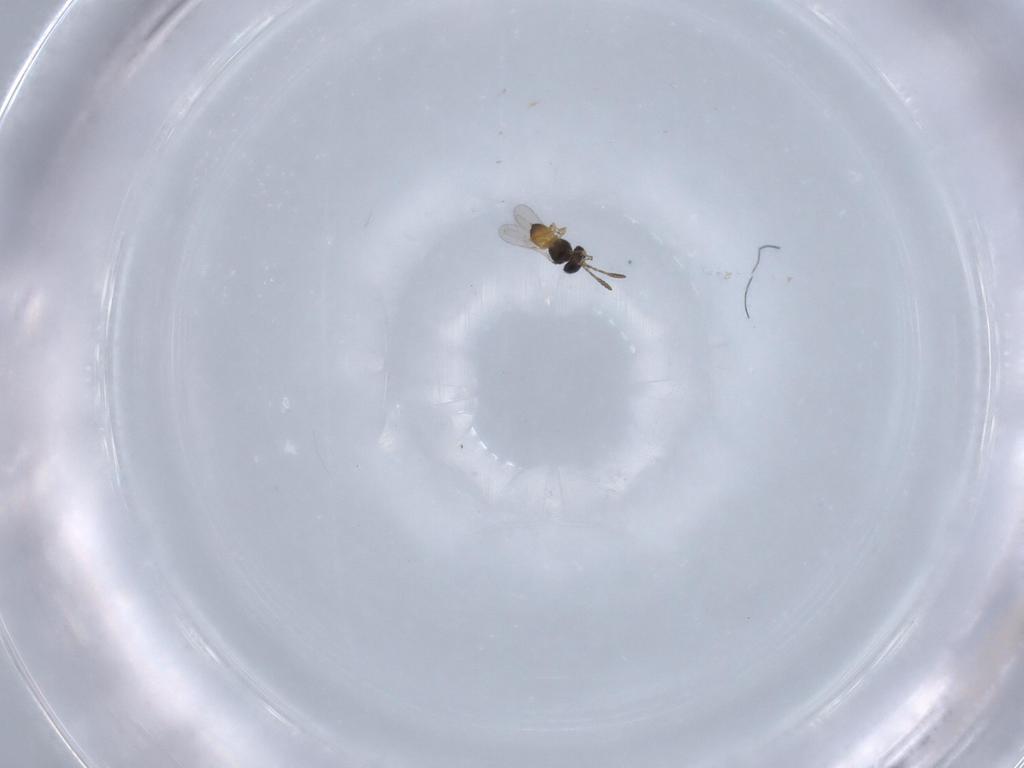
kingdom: Animalia
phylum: Arthropoda
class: Insecta
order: Hymenoptera
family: Scelionidae
